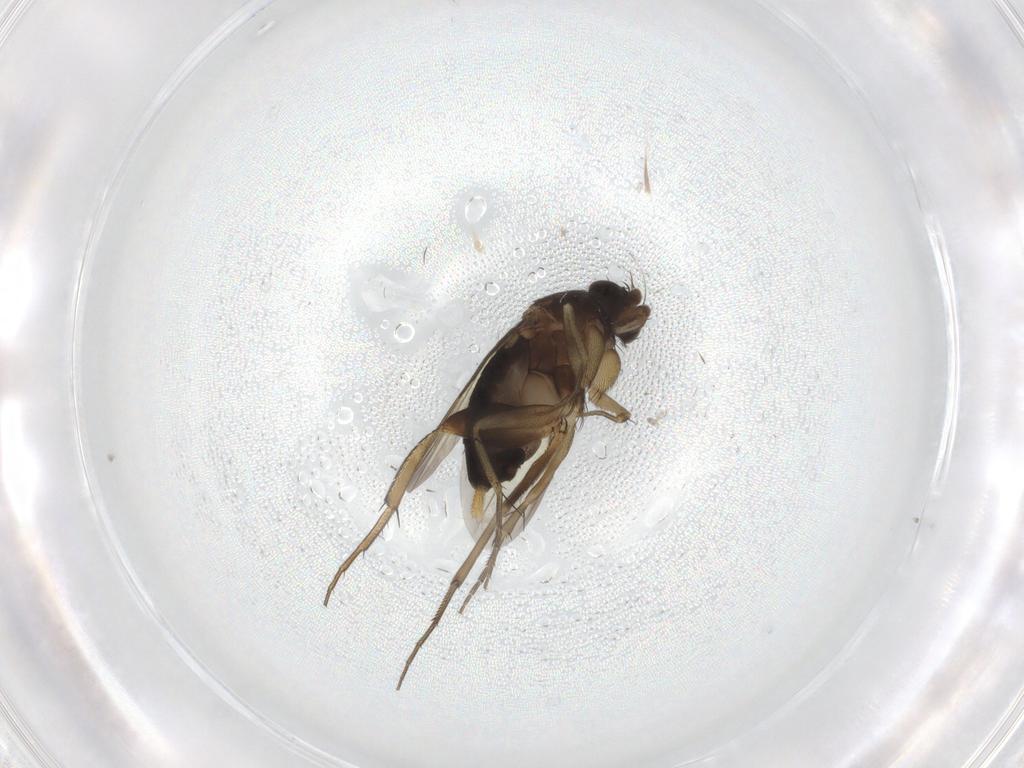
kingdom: Animalia
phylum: Arthropoda
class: Insecta
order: Diptera
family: Phoridae
